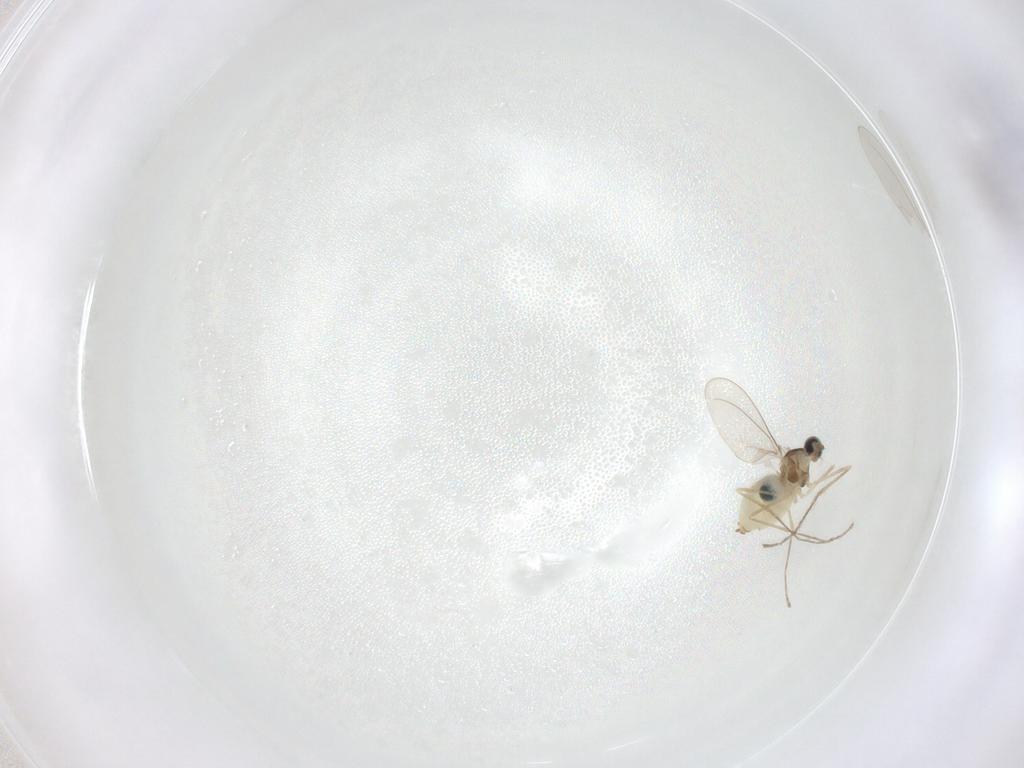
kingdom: Animalia
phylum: Arthropoda
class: Insecta
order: Diptera
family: Cecidomyiidae
